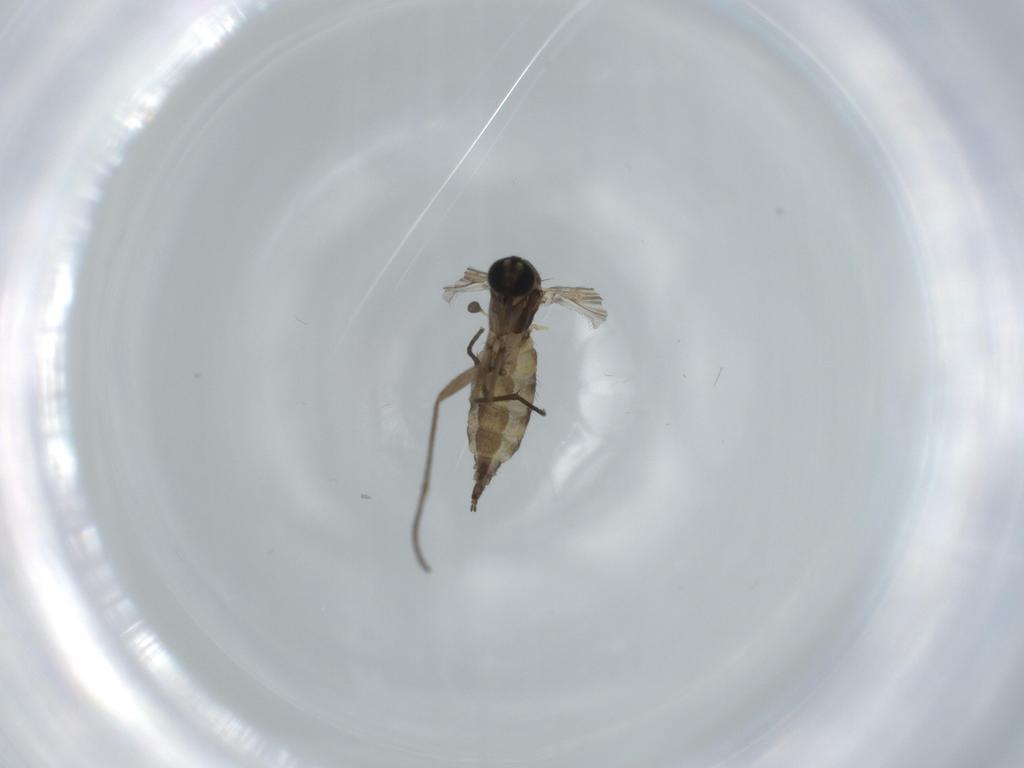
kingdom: Animalia
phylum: Arthropoda
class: Insecta
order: Diptera
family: Sciaridae
